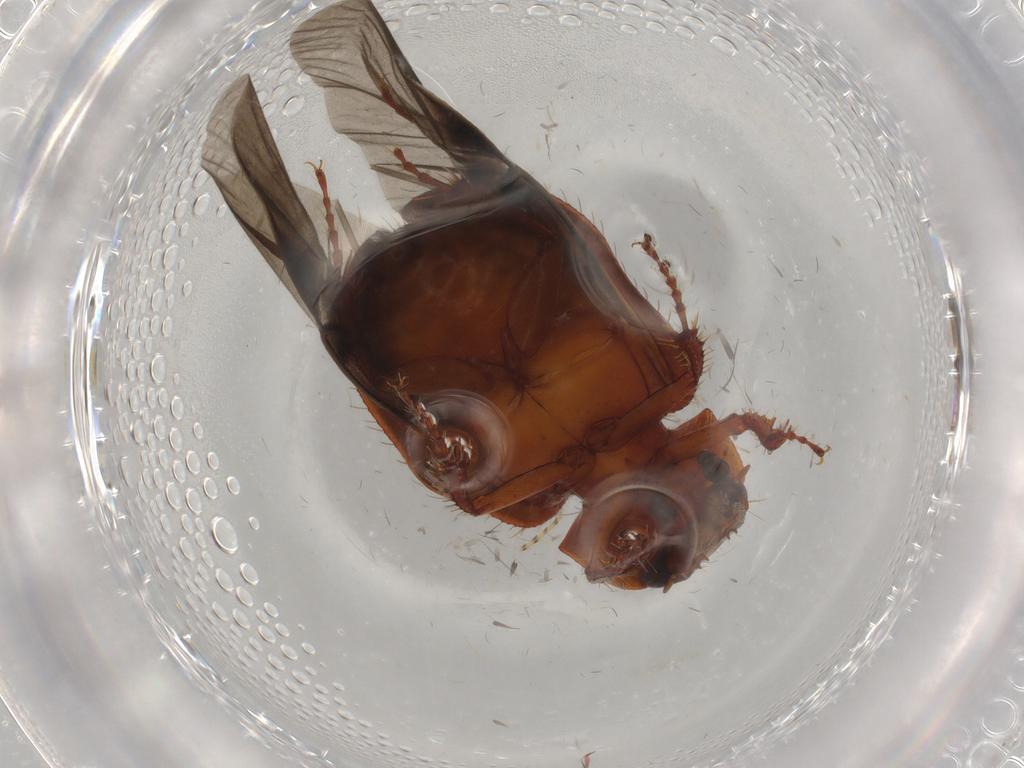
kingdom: Animalia
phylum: Arthropoda
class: Insecta
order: Coleoptera
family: Hybosoridae
